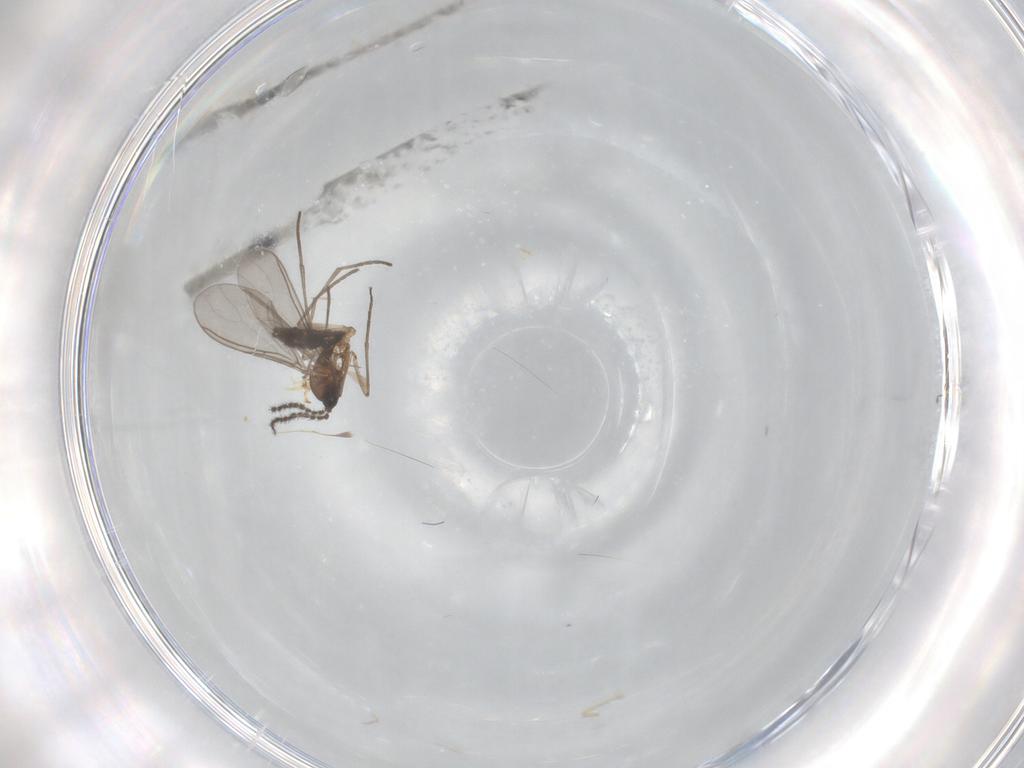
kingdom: Animalia
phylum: Arthropoda
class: Insecta
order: Diptera
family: Sciaridae
